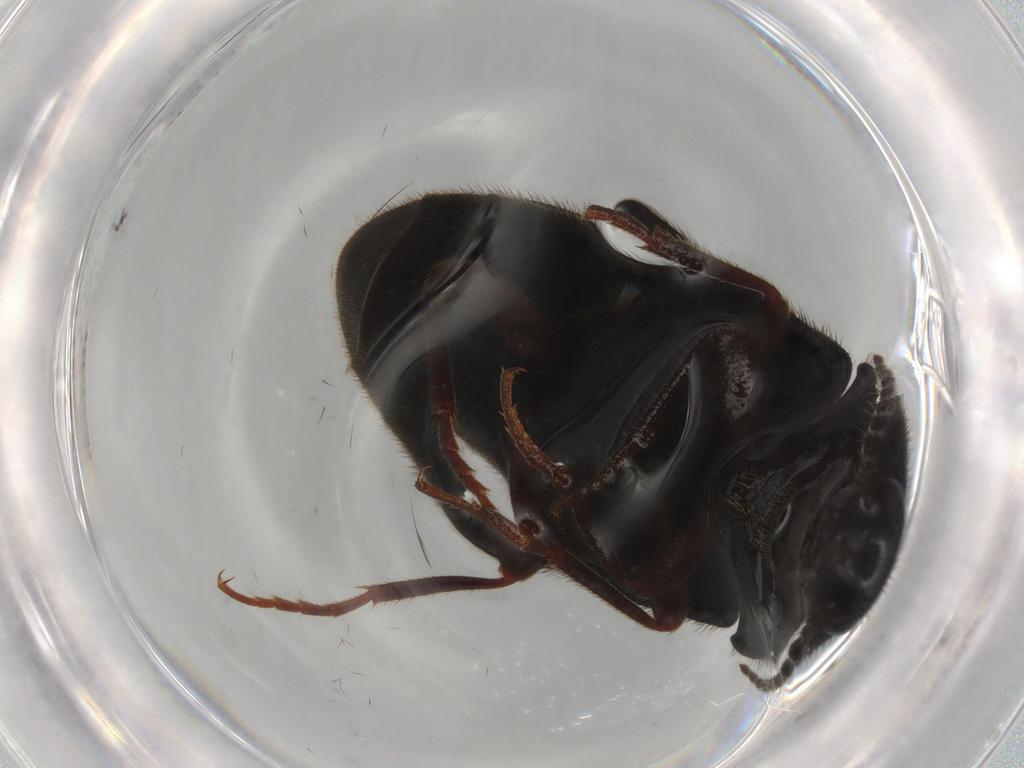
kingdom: Animalia
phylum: Arthropoda
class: Insecta
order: Coleoptera
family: Elateridae
